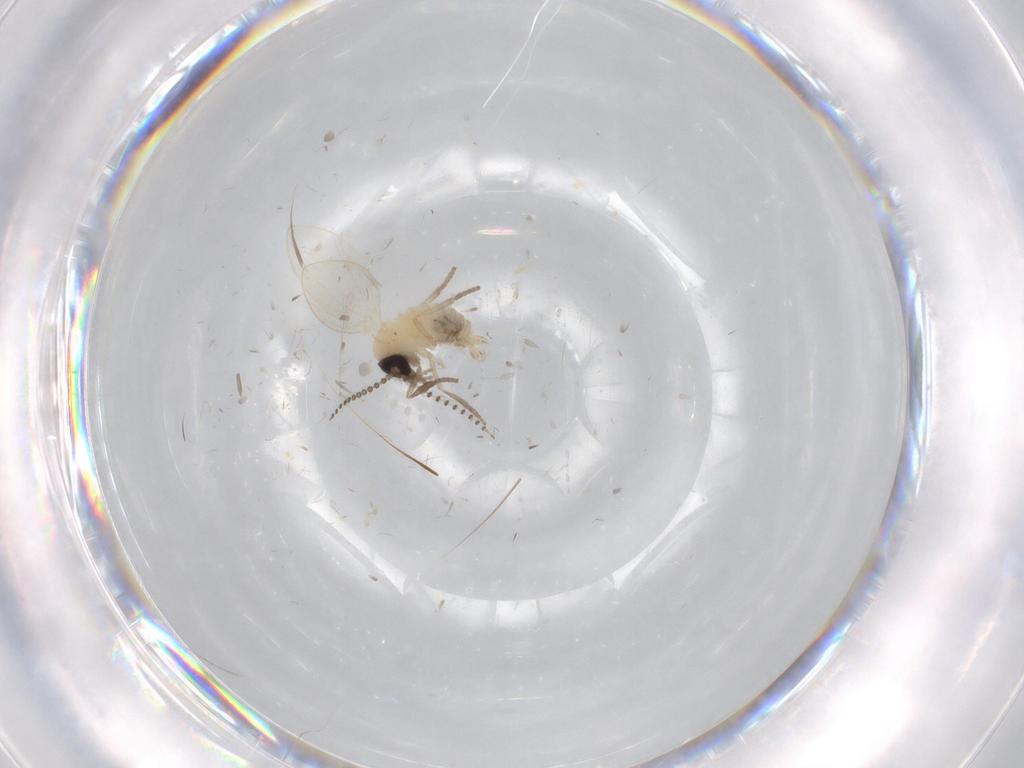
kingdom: Animalia
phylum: Arthropoda
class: Insecta
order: Diptera
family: Psychodidae
